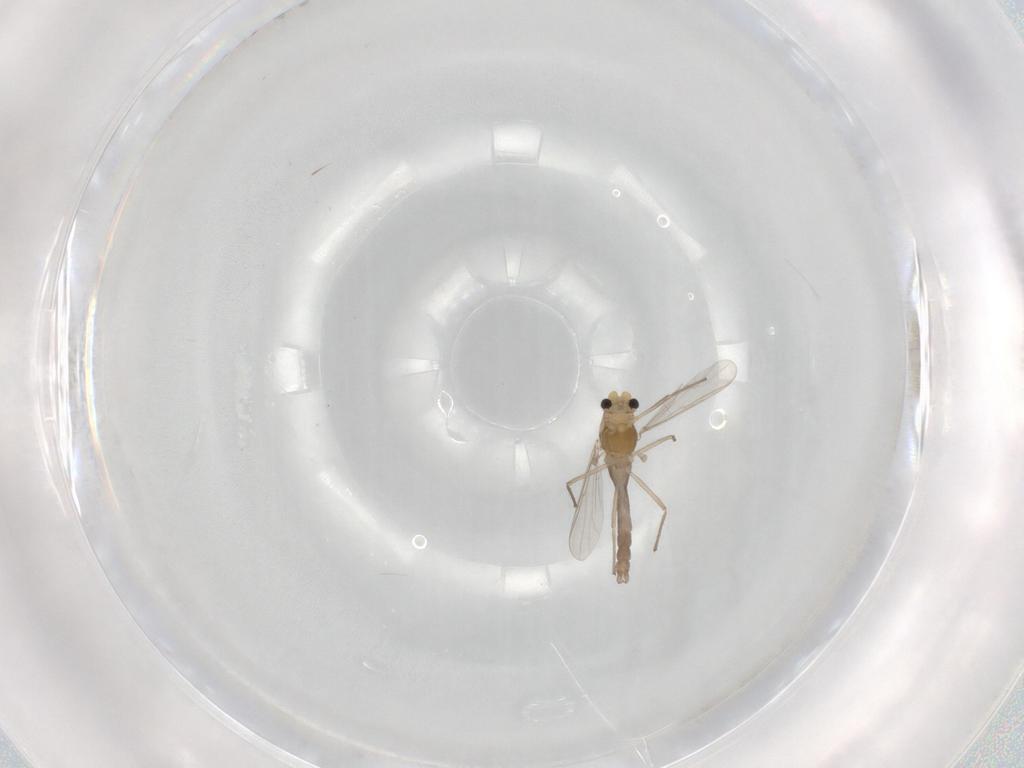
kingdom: Animalia
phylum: Arthropoda
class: Insecta
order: Diptera
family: Chironomidae
